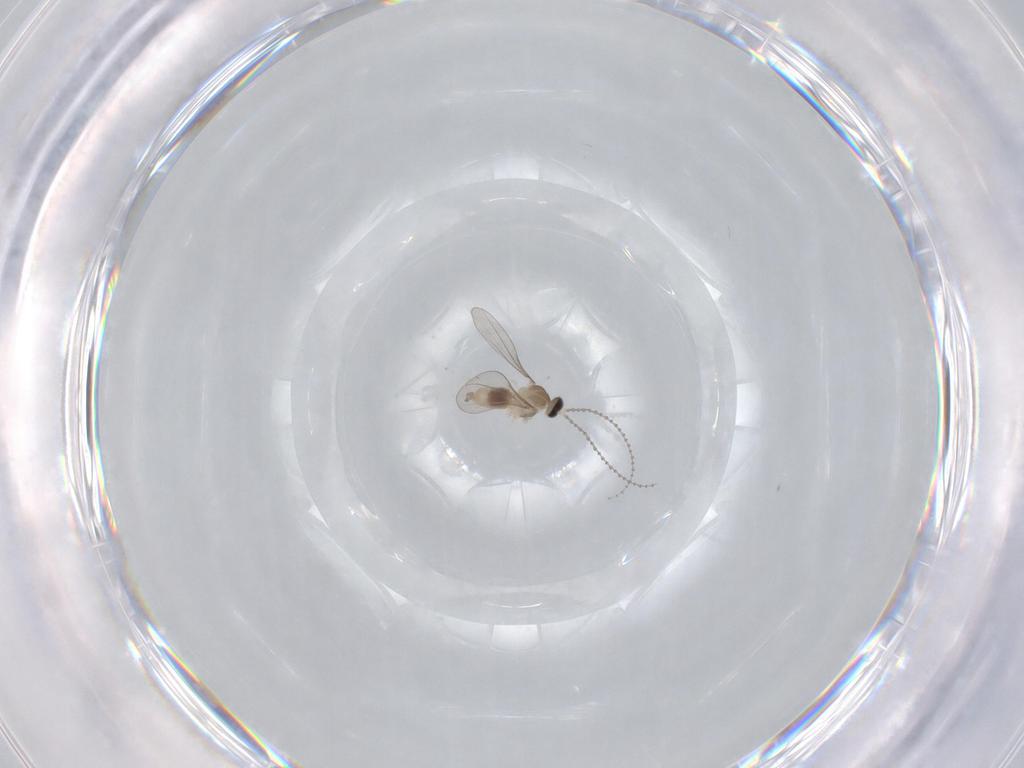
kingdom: Animalia
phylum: Arthropoda
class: Insecta
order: Diptera
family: Cecidomyiidae
